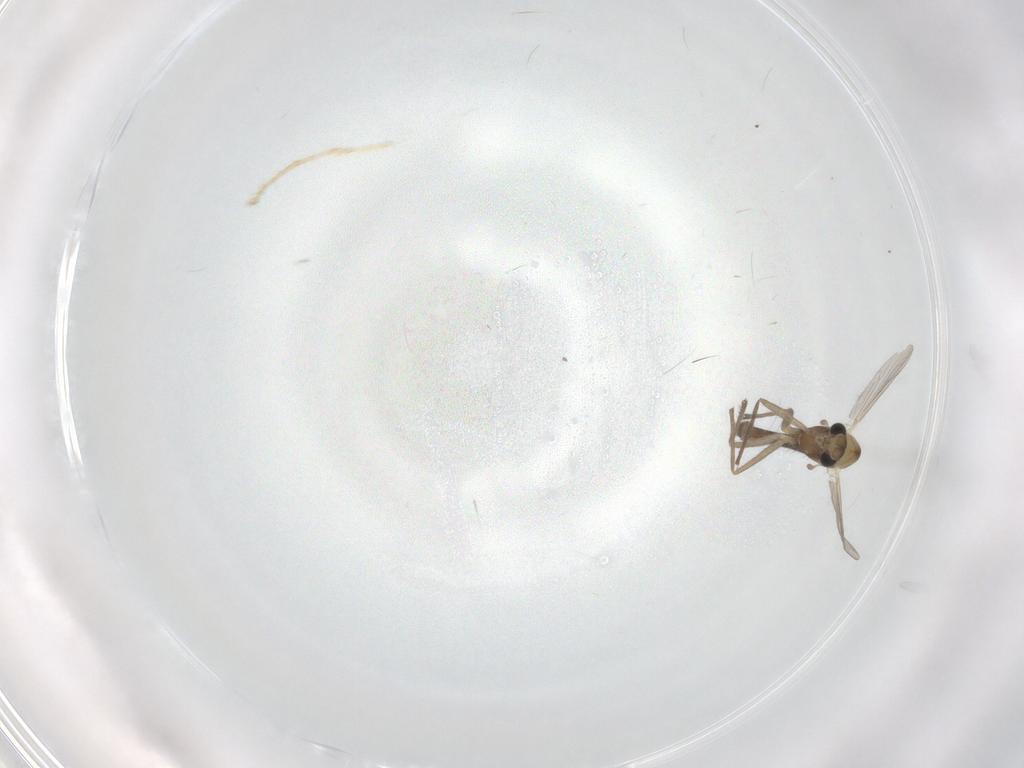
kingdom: Animalia
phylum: Arthropoda
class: Insecta
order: Diptera
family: Chironomidae
